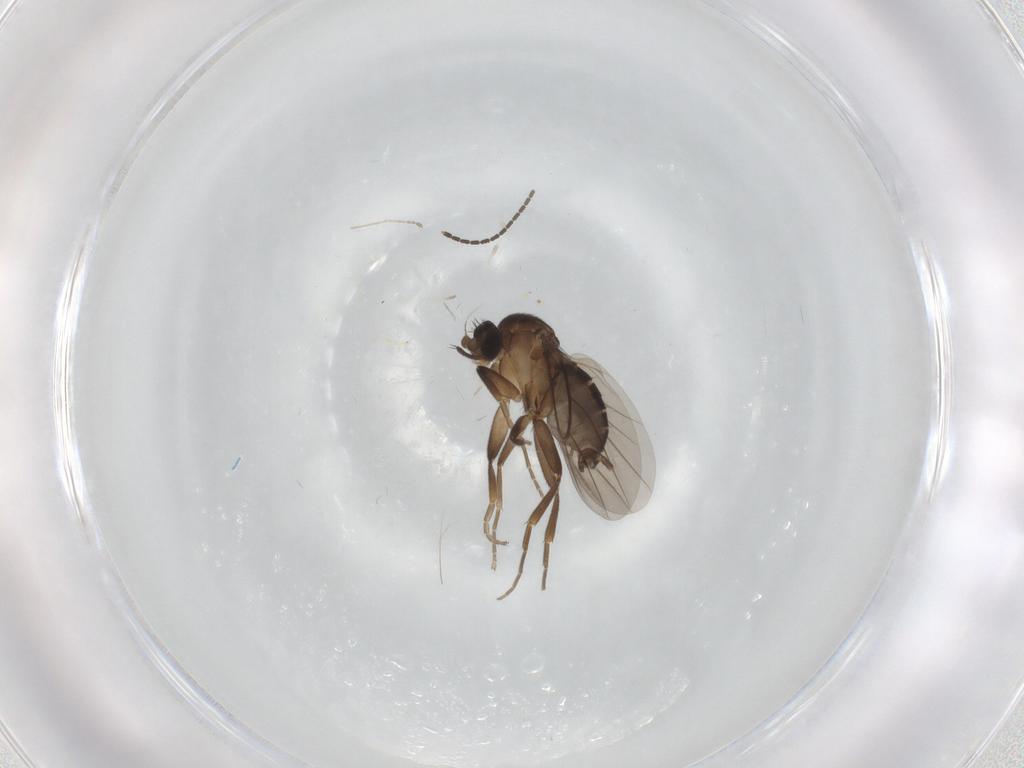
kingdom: Animalia
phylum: Arthropoda
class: Insecta
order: Diptera
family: Sciaridae
